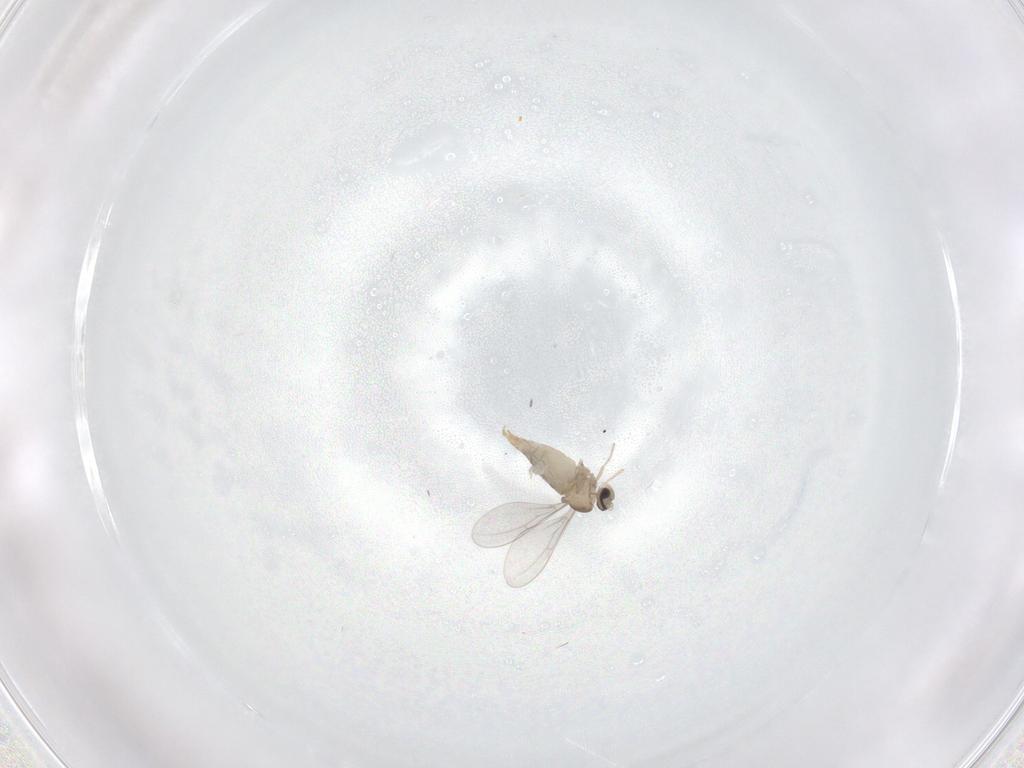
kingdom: Animalia
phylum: Arthropoda
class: Insecta
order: Diptera
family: Cecidomyiidae
